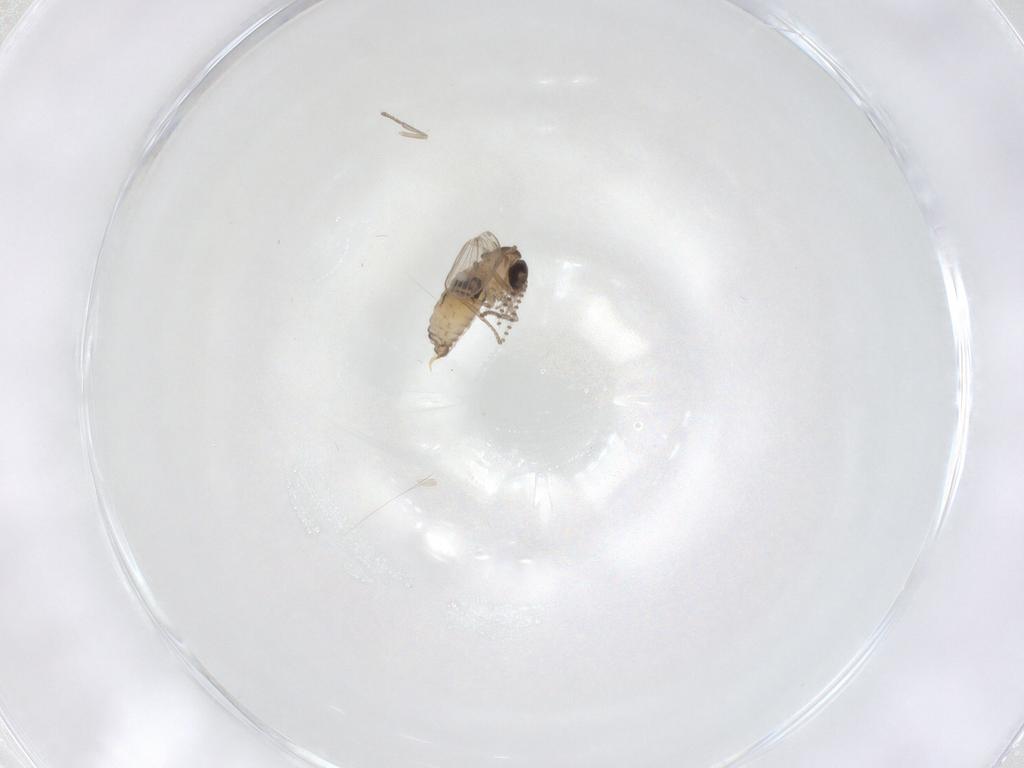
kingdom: Animalia
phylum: Arthropoda
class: Insecta
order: Diptera
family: Psychodidae
